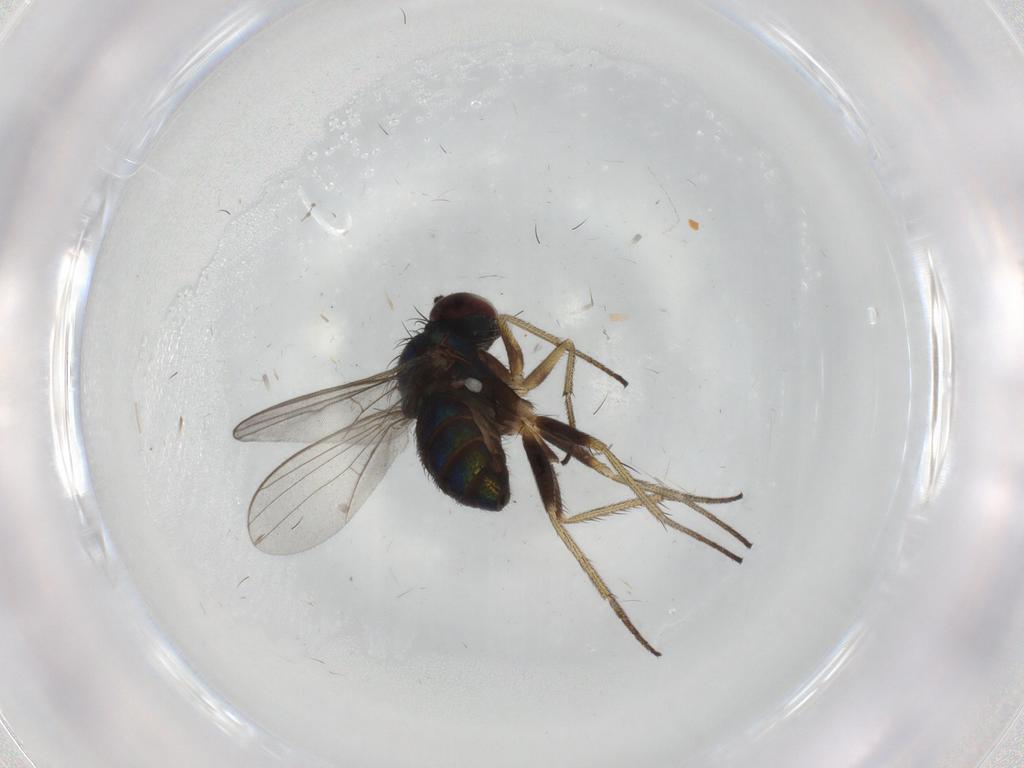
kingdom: Animalia
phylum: Arthropoda
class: Insecta
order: Diptera
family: Dolichopodidae
